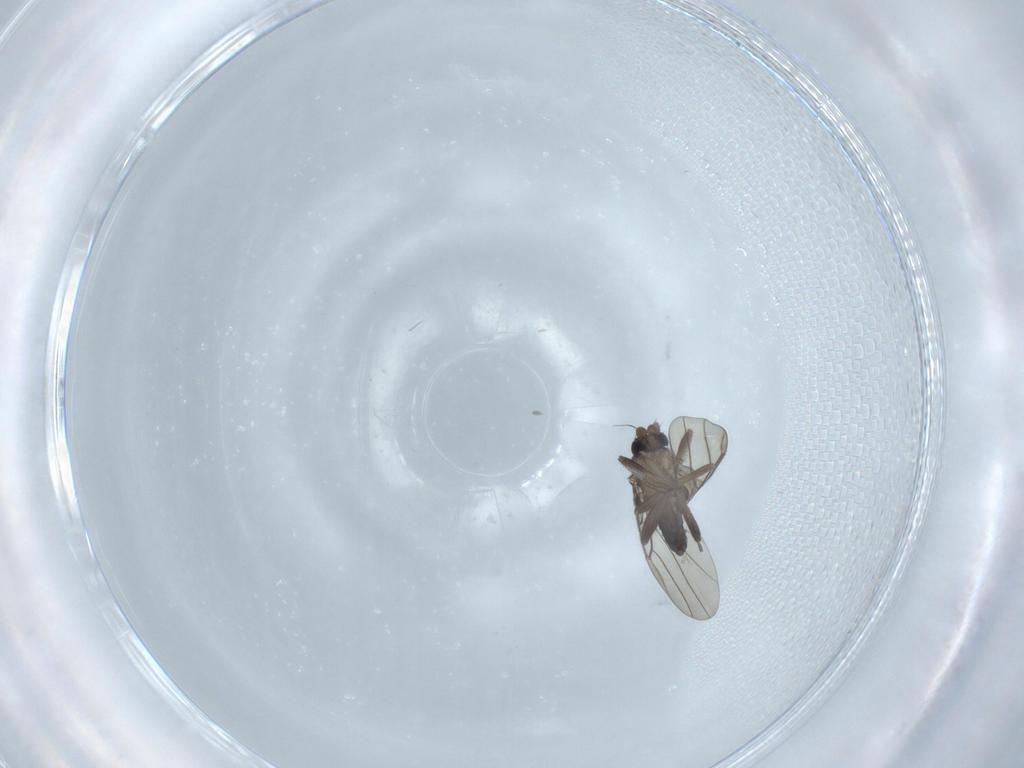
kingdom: Animalia
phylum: Arthropoda
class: Insecta
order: Diptera
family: Phoridae
